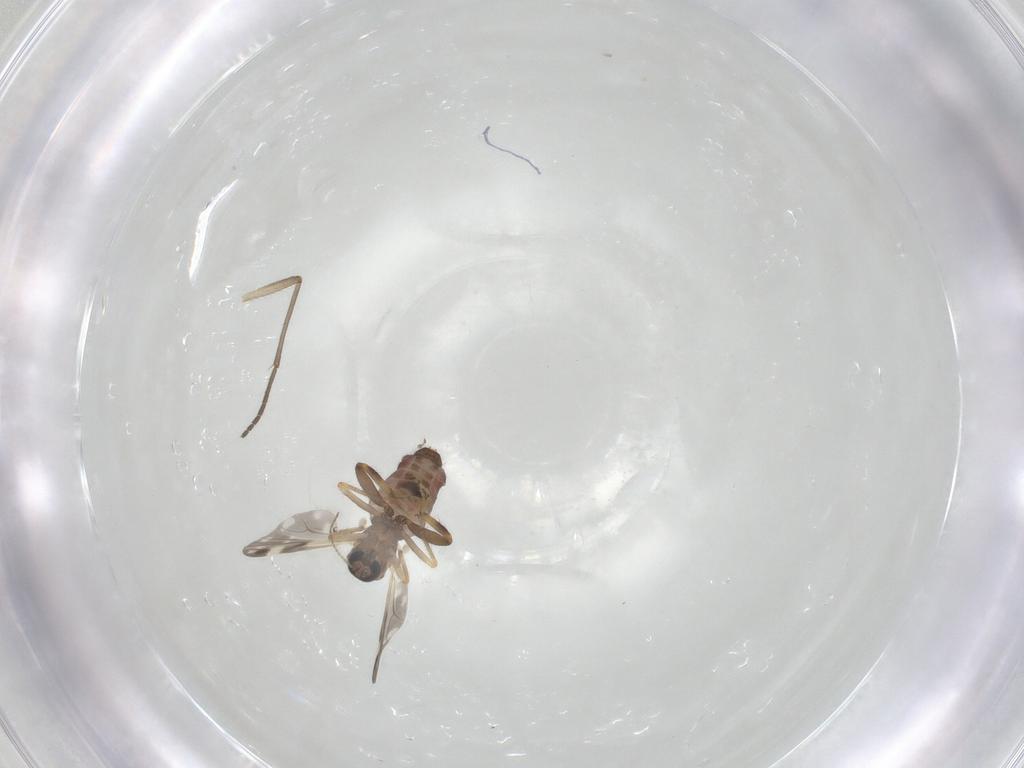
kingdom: Animalia
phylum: Arthropoda
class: Insecta
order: Diptera
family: Ceratopogonidae
